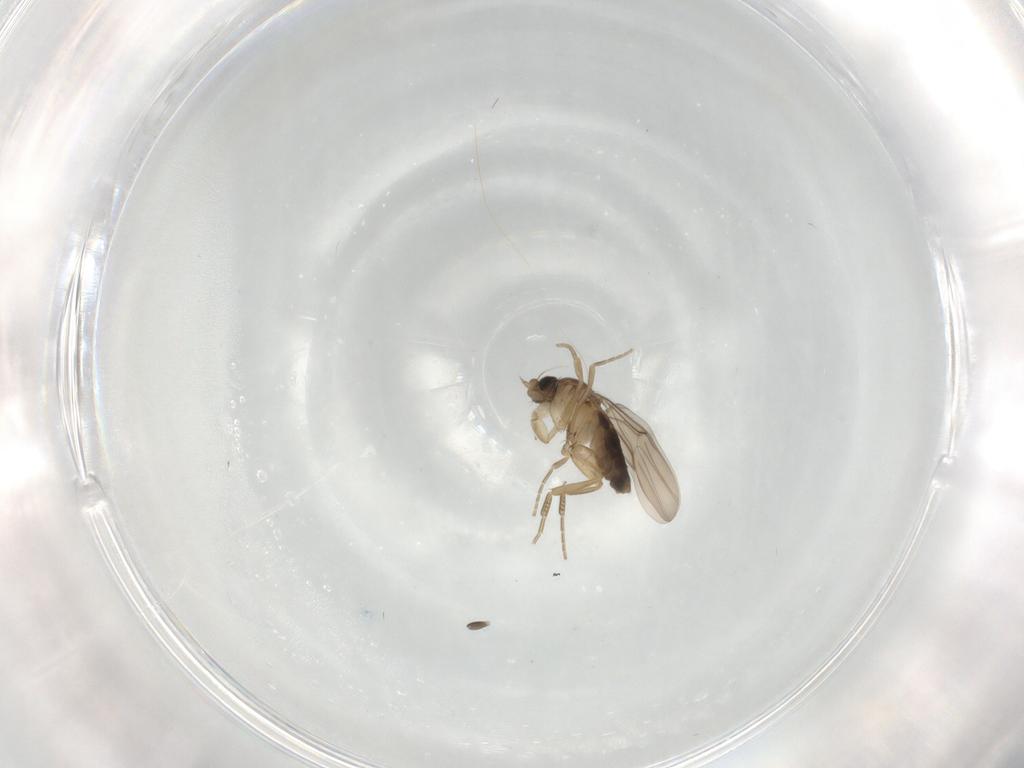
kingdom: Animalia
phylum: Arthropoda
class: Insecta
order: Diptera
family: Phoridae
